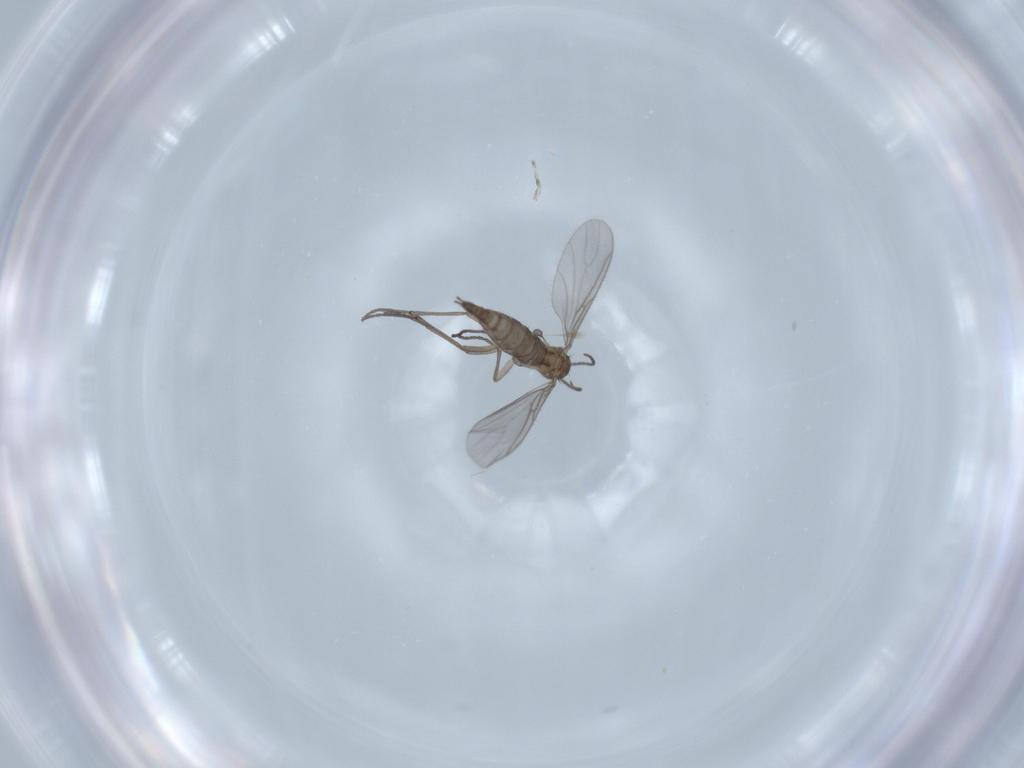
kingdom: Animalia
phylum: Arthropoda
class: Insecta
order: Diptera
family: Sciaridae
